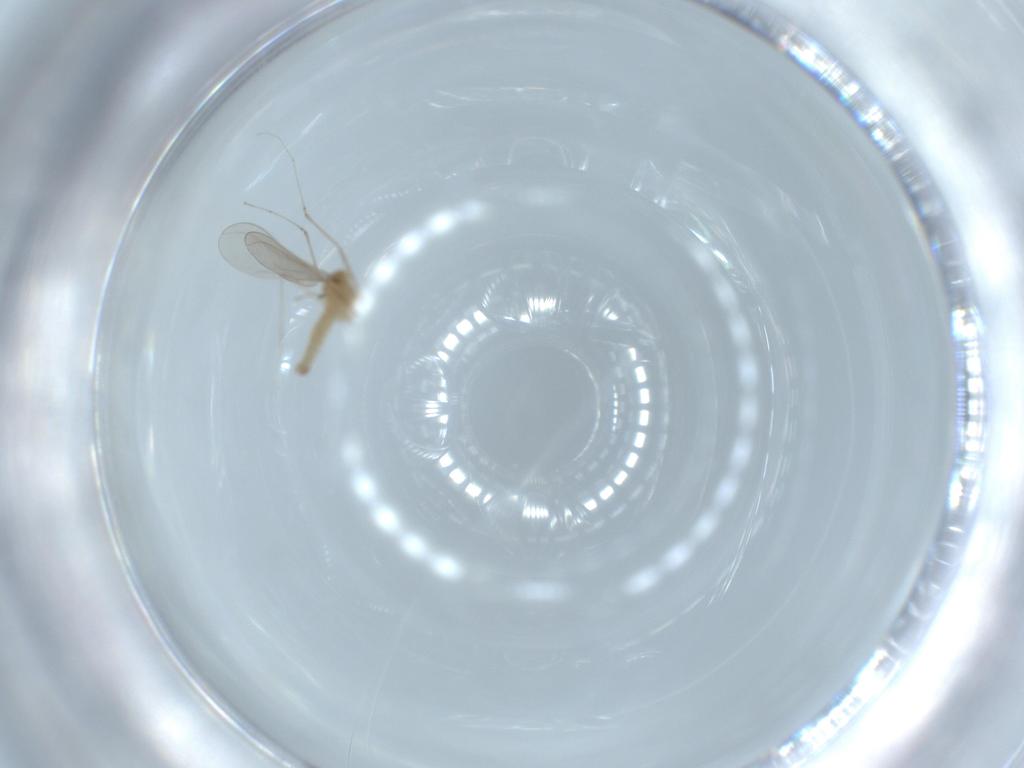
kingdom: Animalia
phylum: Arthropoda
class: Insecta
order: Diptera
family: Cecidomyiidae
